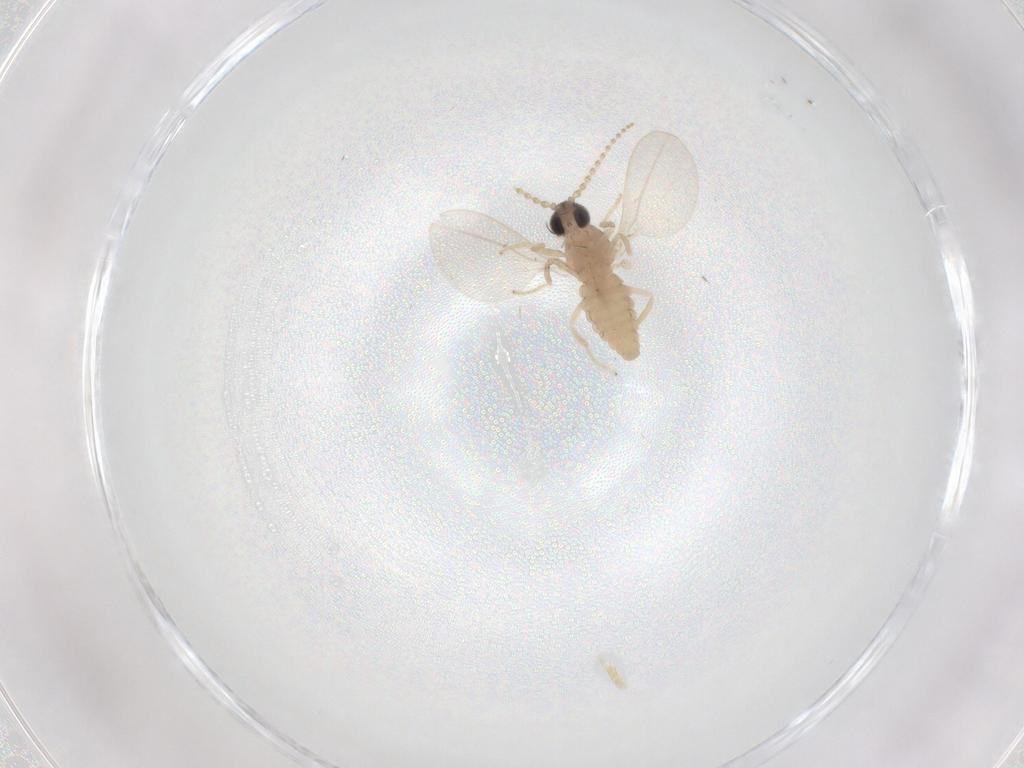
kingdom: Animalia
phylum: Arthropoda
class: Insecta
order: Diptera
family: Cecidomyiidae
